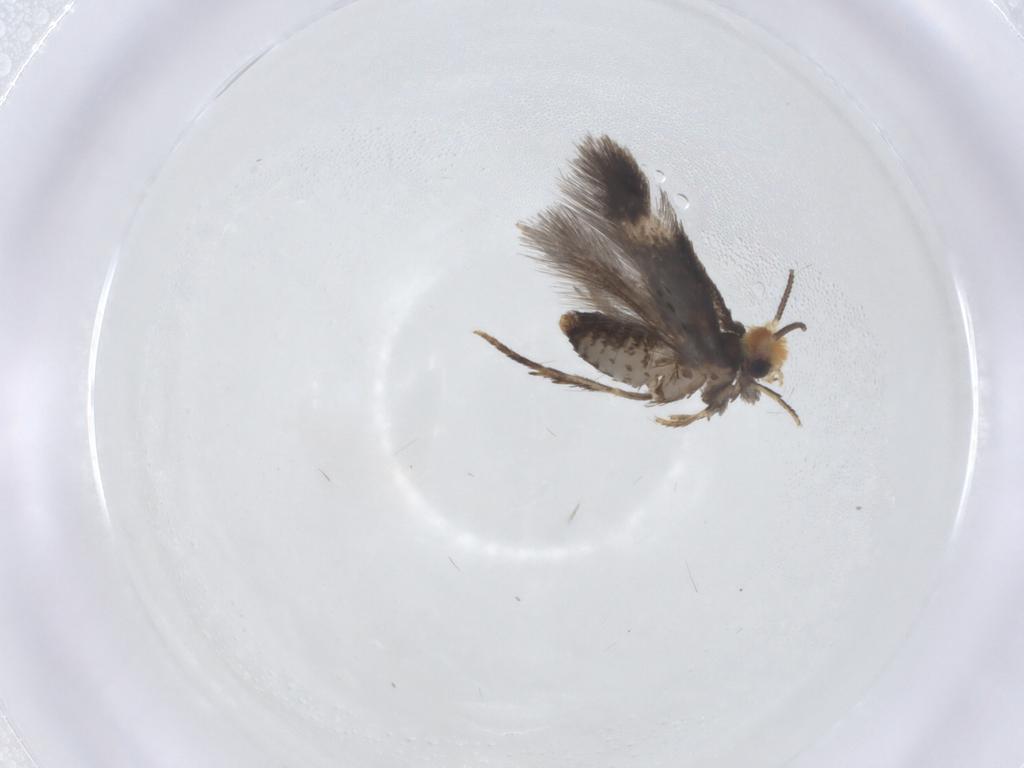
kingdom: Animalia
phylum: Arthropoda
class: Insecta
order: Lepidoptera
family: Nepticulidae
